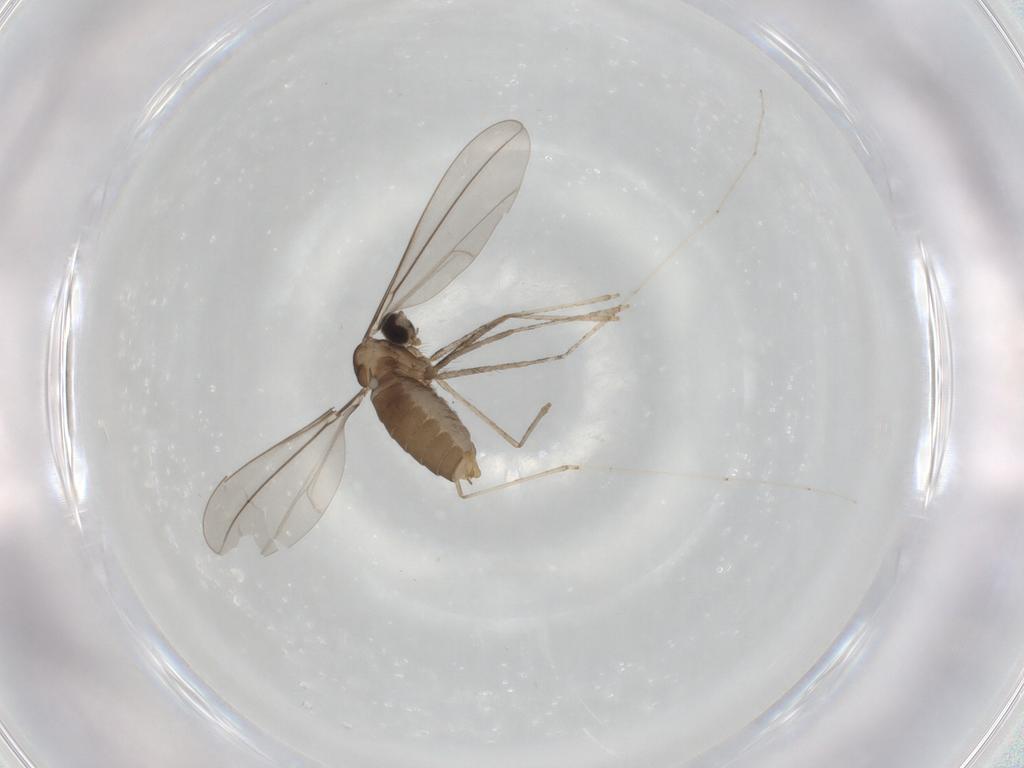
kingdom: Animalia
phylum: Arthropoda
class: Insecta
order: Diptera
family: Cecidomyiidae
